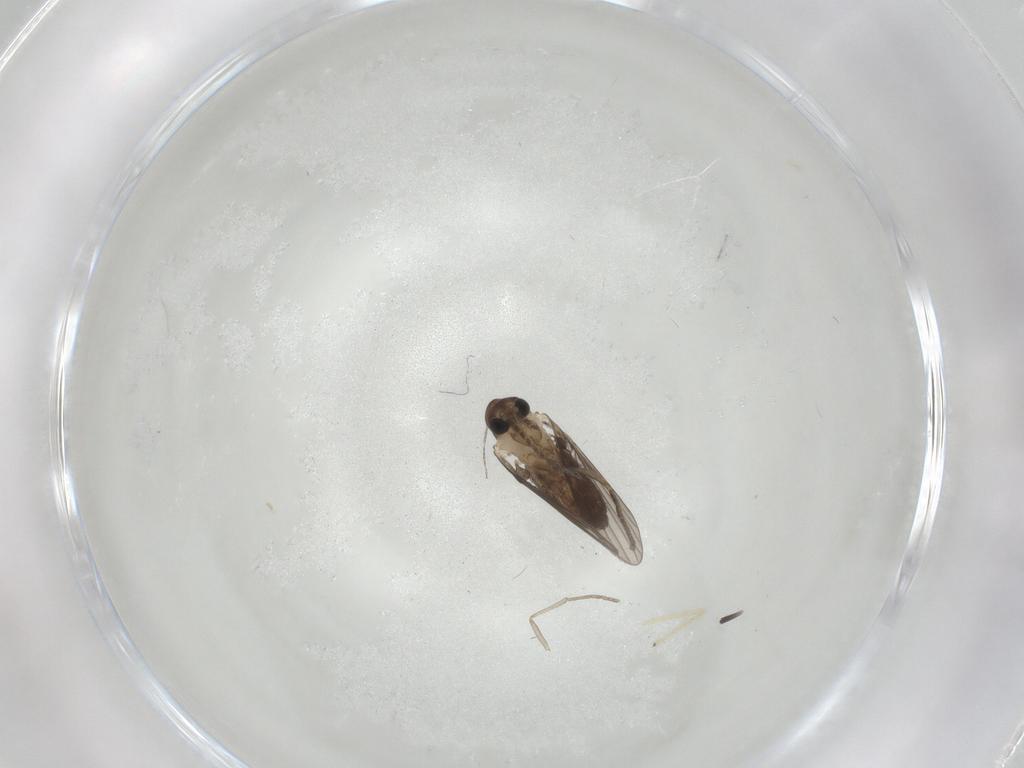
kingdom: Animalia
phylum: Arthropoda
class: Insecta
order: Diptera
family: Cecidomyiidae
